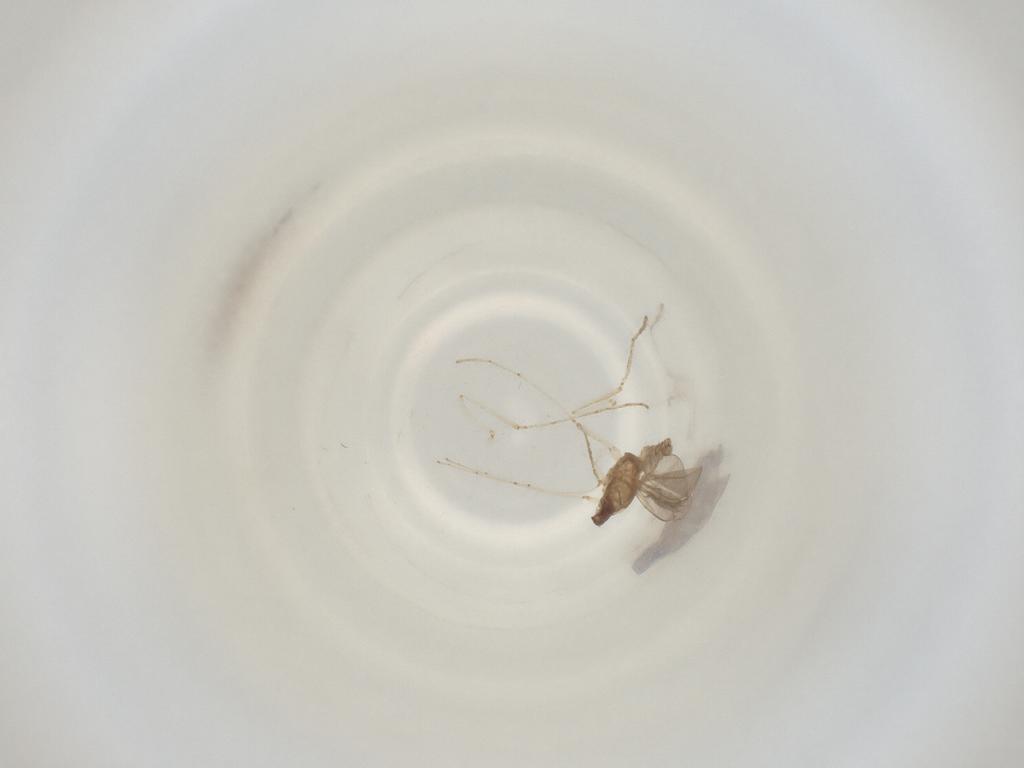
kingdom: Animalia
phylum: Arthropoda
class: Insecta
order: Diptera
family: Cecidomyiidae
